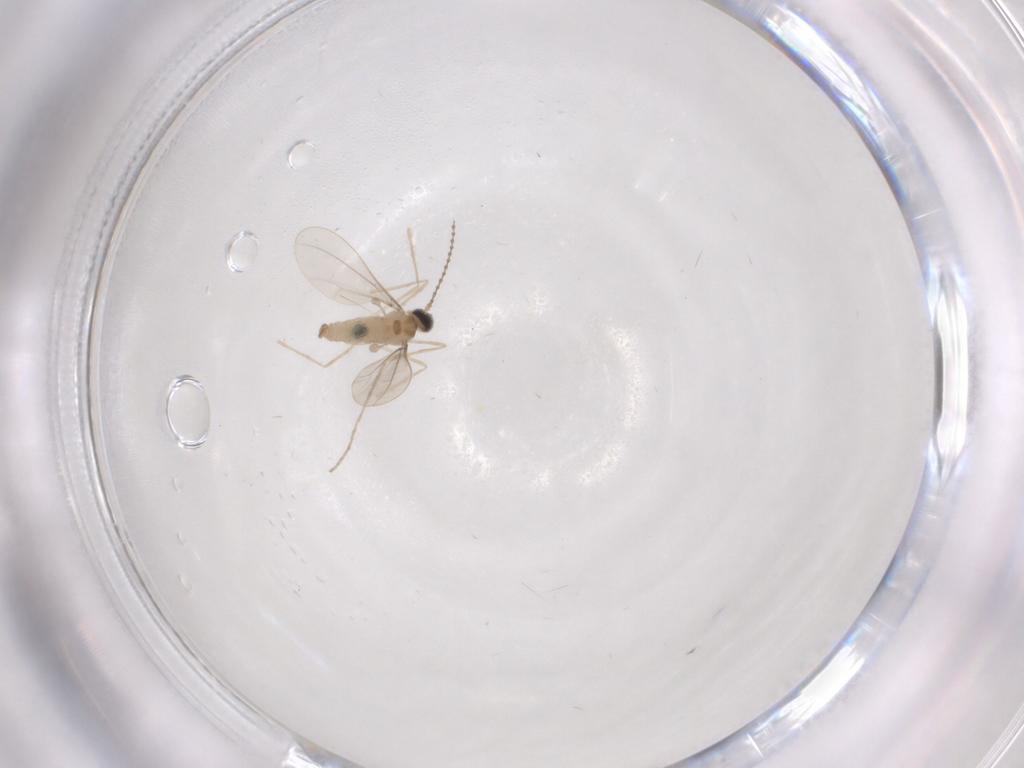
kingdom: Animalia
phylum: Arthropoda
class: Insecta
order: Diptera
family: Cecidomyiidae
